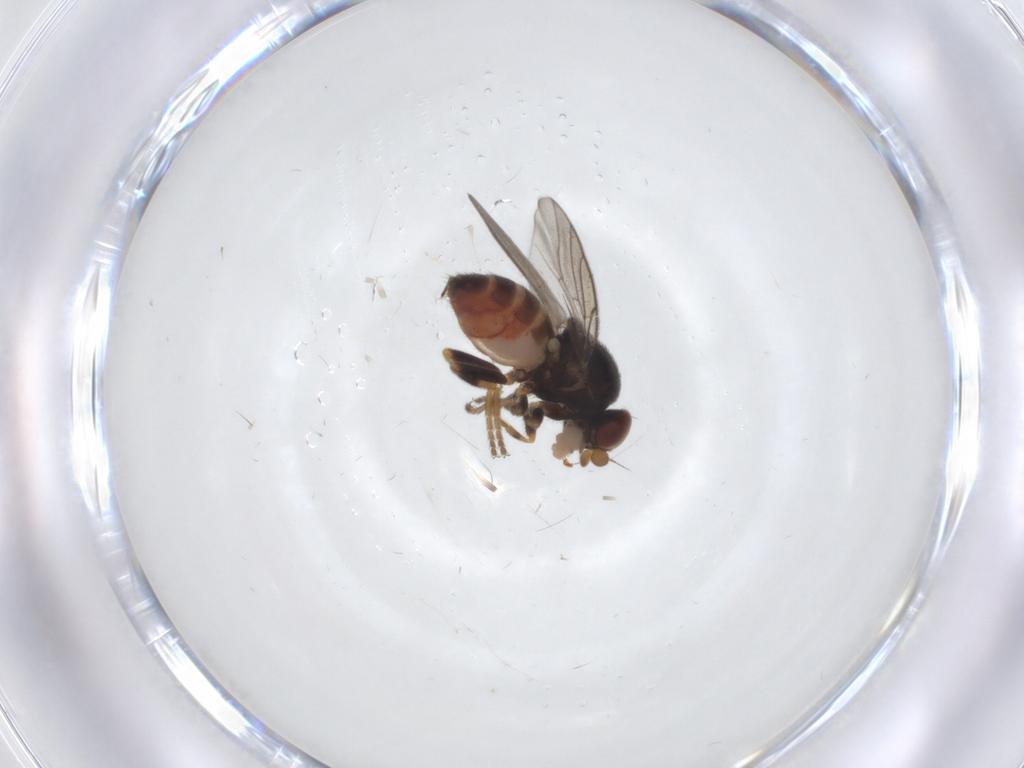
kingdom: Animalia
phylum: Arthropoda
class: Insecta
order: Diptera
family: Chloropidae
